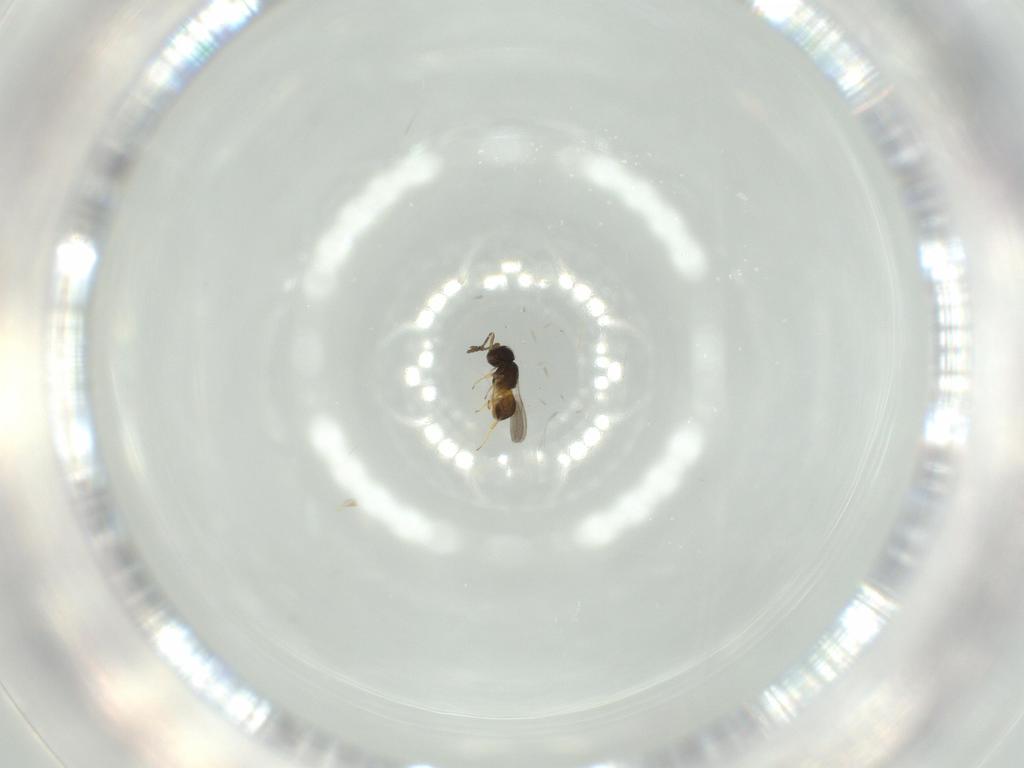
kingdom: Animalia
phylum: Arthropoda
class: Insecta
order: Hymenoptera
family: Scelionidae
